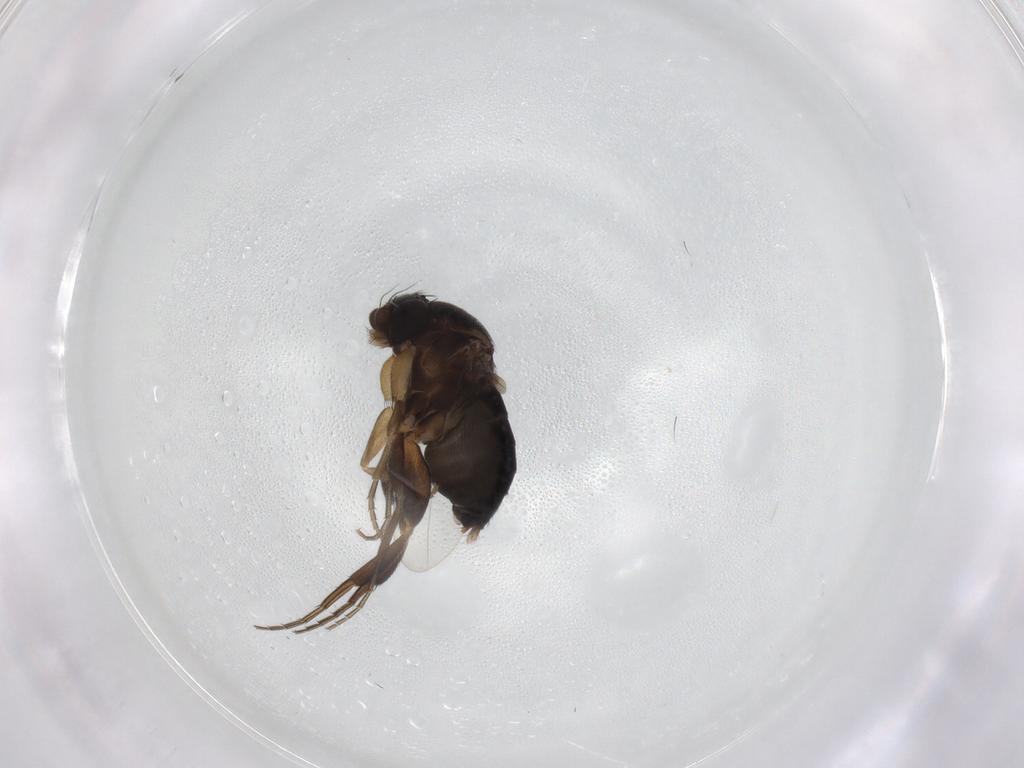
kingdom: Animalia
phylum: Arthropoda
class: Insecta
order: Diptera
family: Phoridae
